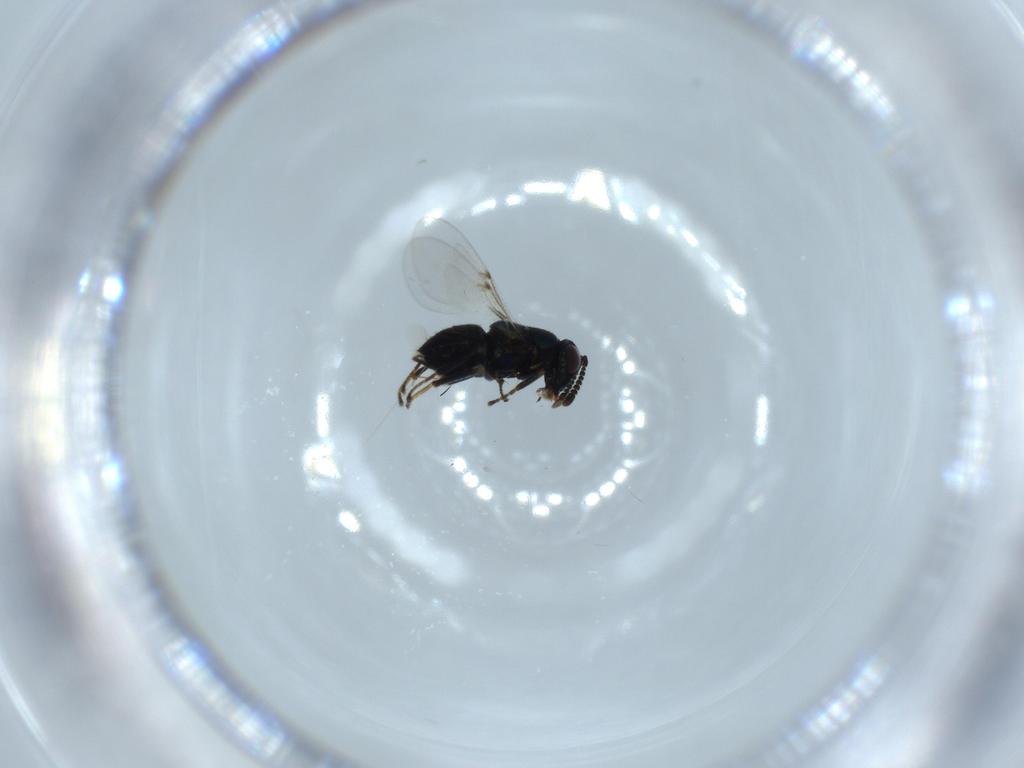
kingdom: Animalia
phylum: Arthropoda
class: Insecta
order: Hymenoptera
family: Encyrtidae
